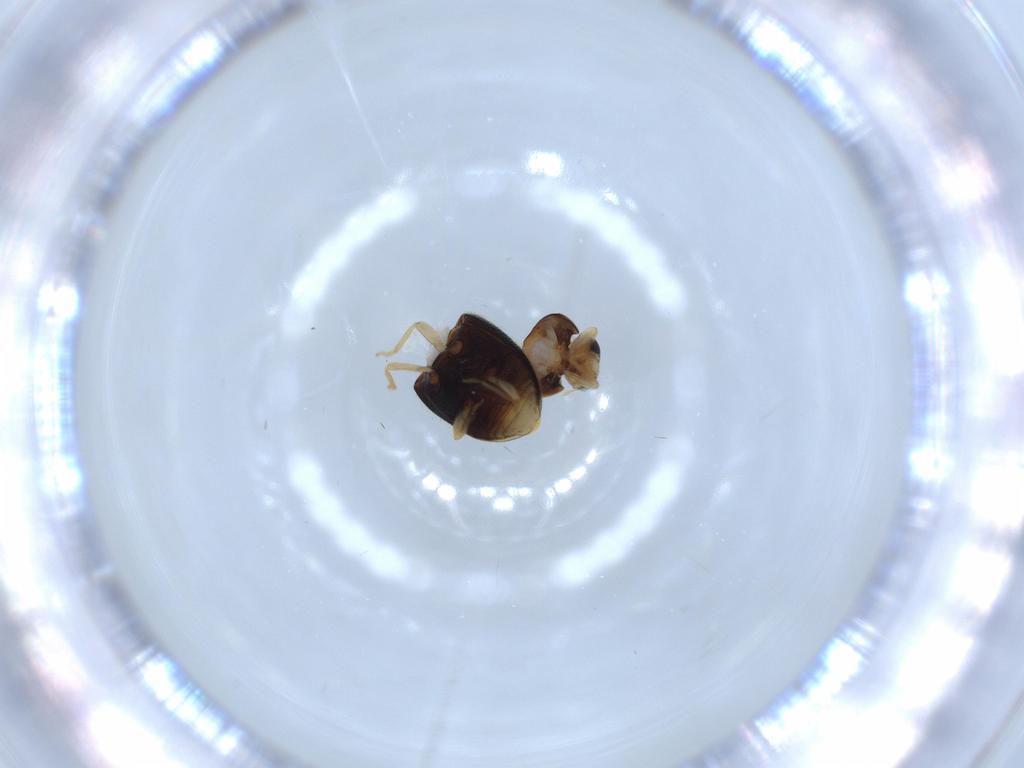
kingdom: Animalia
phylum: Arthropoda
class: Insecta
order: Coleoptera
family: Coccinellidae
